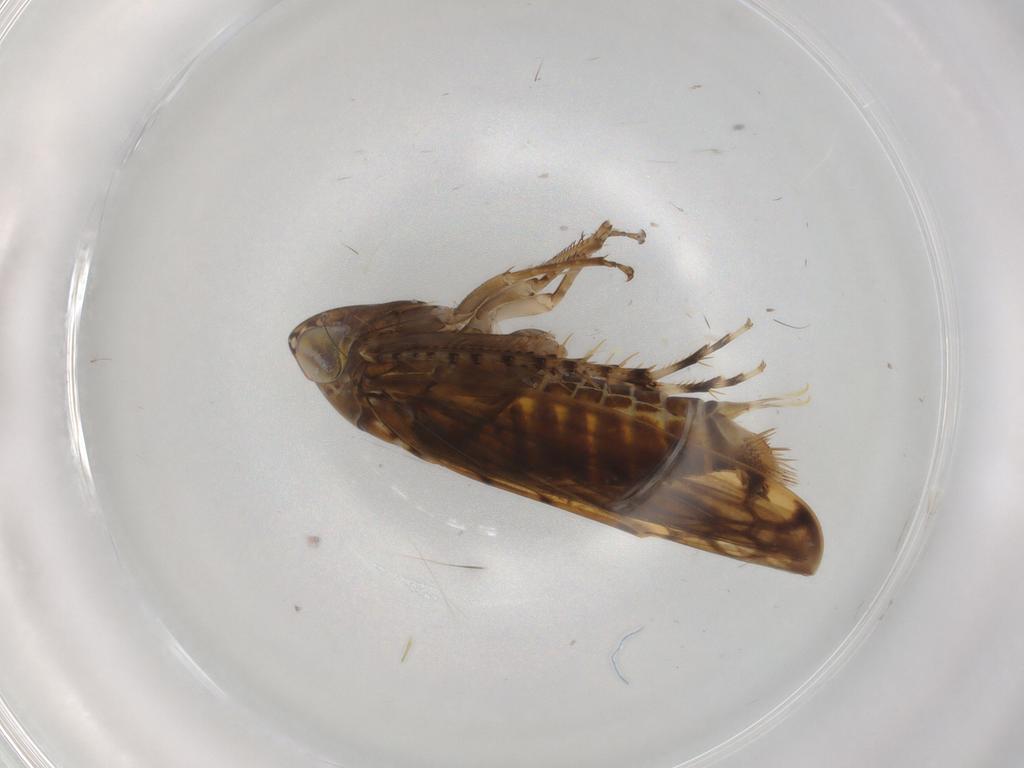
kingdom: Animalia
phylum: Arthropoda
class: Insecta
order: Hemiptera
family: Cicadellidae
